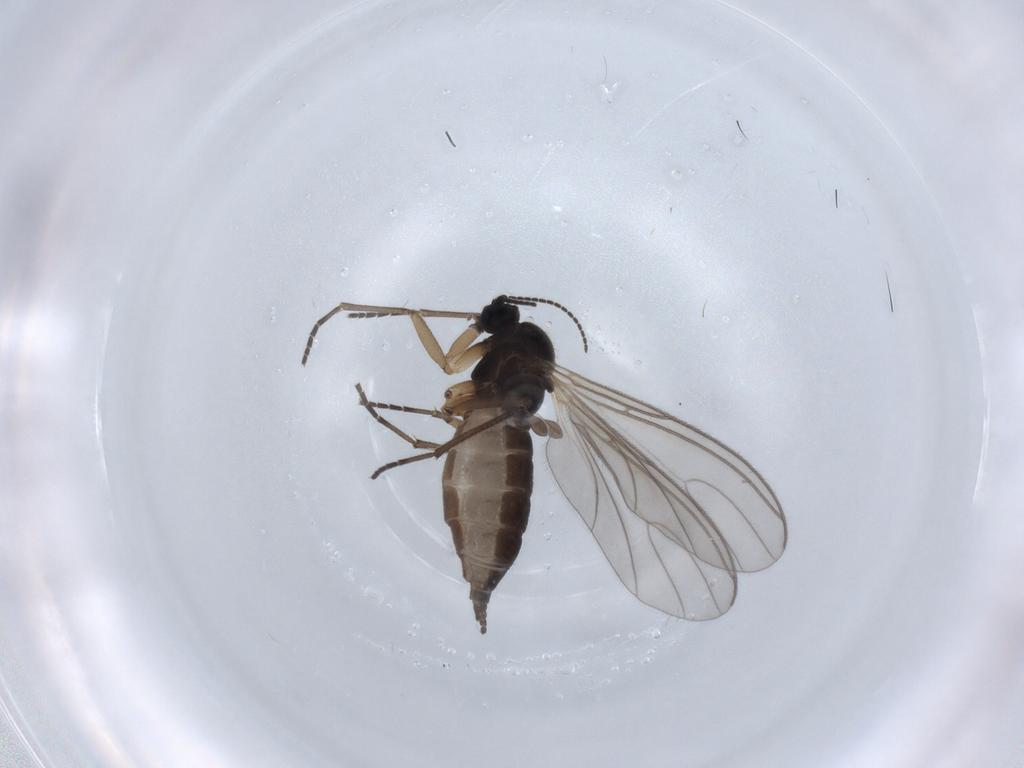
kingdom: Animalia
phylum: Arthropoda
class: Insecta
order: Diptera
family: Sciaridae
